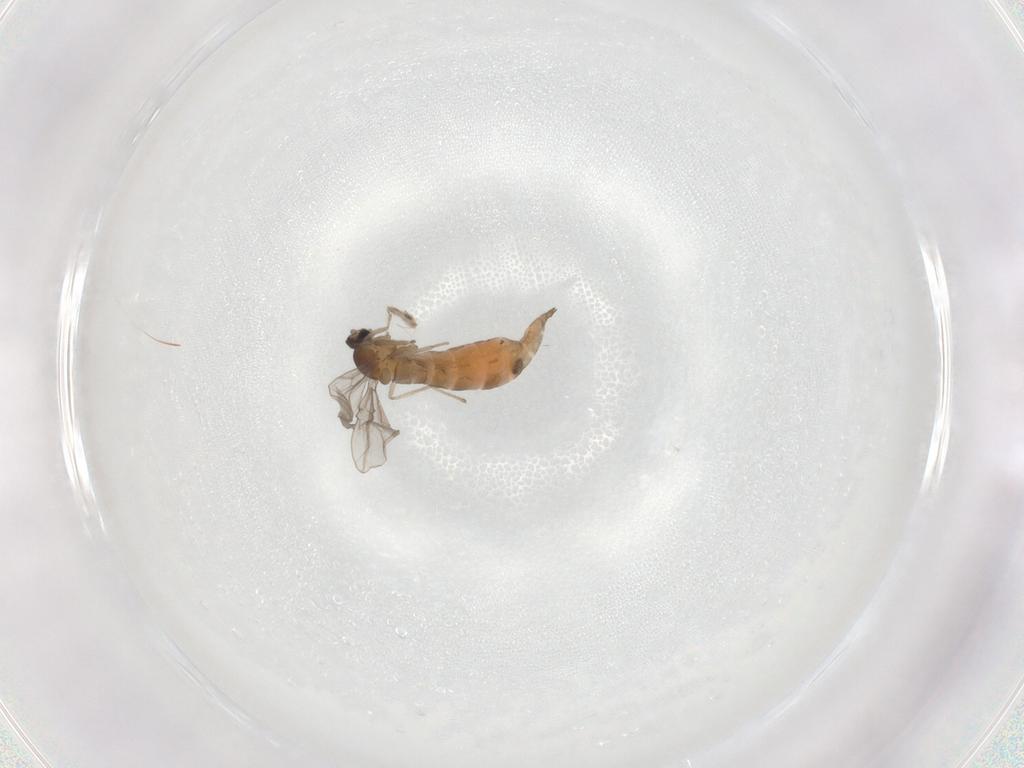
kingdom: Animalia
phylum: Arthropoda
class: Insecta
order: Diptera
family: Cecidomyiidae
